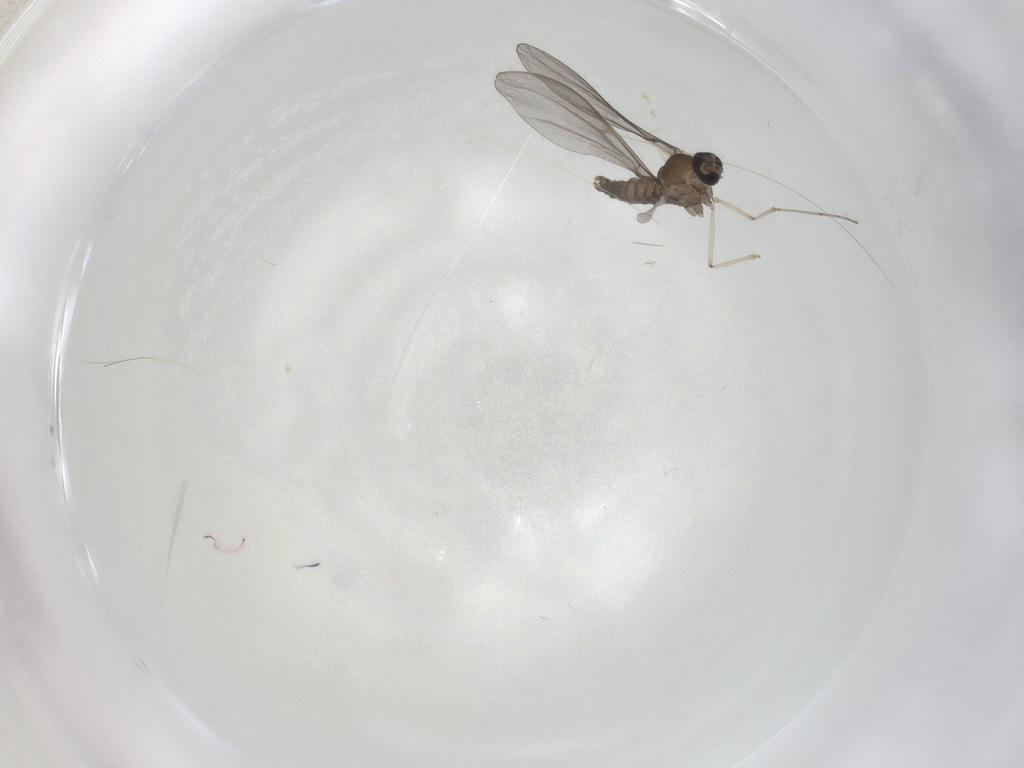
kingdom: Animalia
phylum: Arthropoda
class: Insecta
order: Diptera
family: Cecidomyiidae
